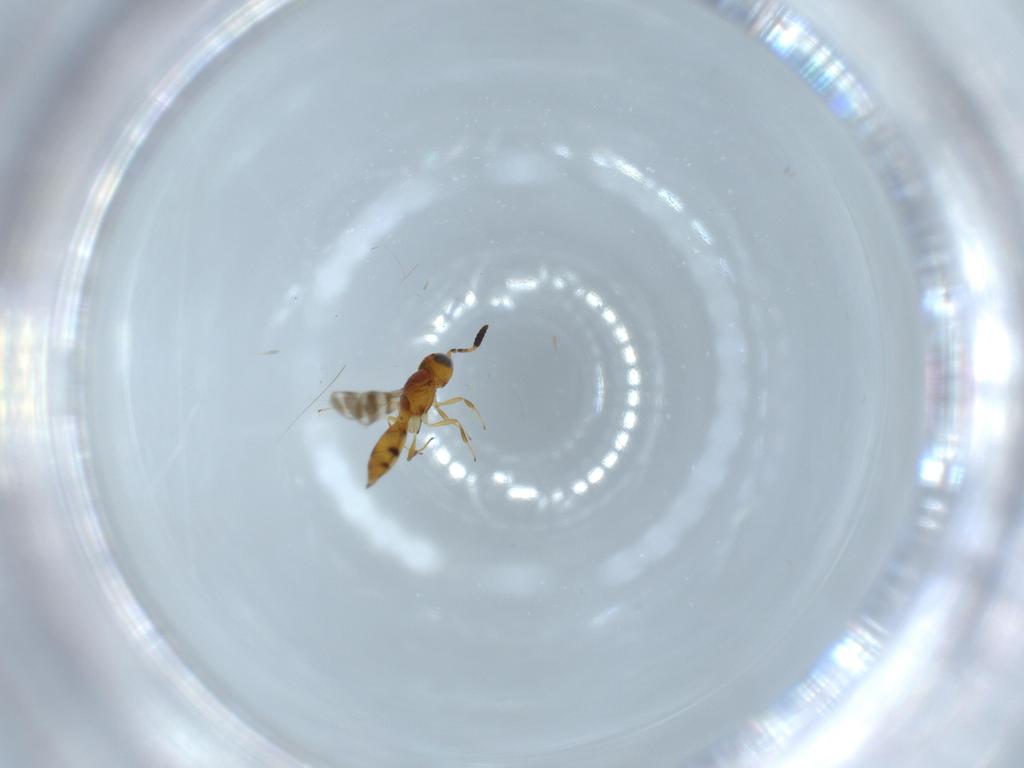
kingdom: Animalia
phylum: Arthropoda
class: Insecta
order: Hymenoptera
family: Scelionidae
